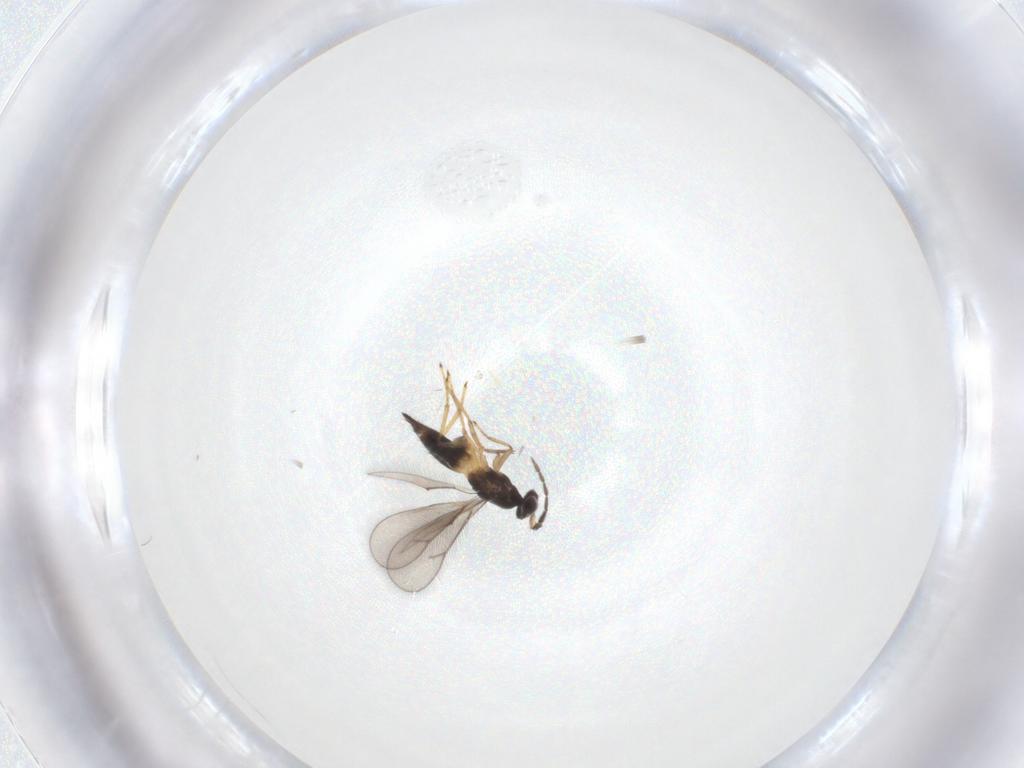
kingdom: Animalia
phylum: Arthropoda
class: Insecta
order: Hymenoptera
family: Eulophidae
